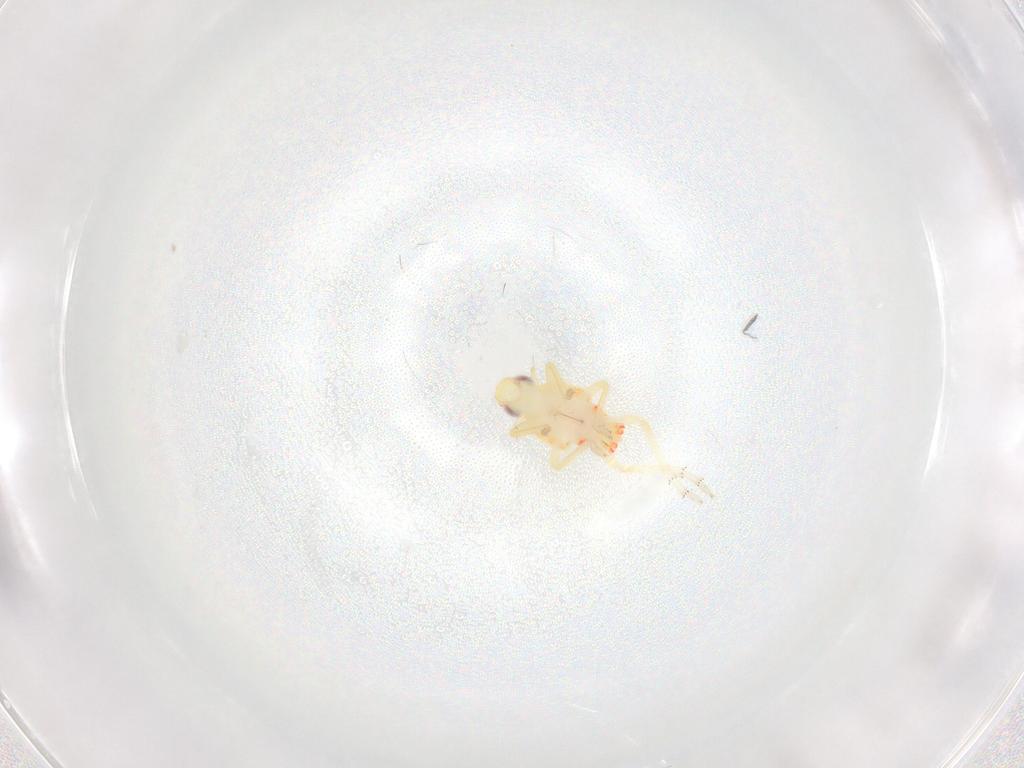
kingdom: Animalia
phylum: Arthropoda
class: Insecta
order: Hemiptera
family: Tropiduchidae
